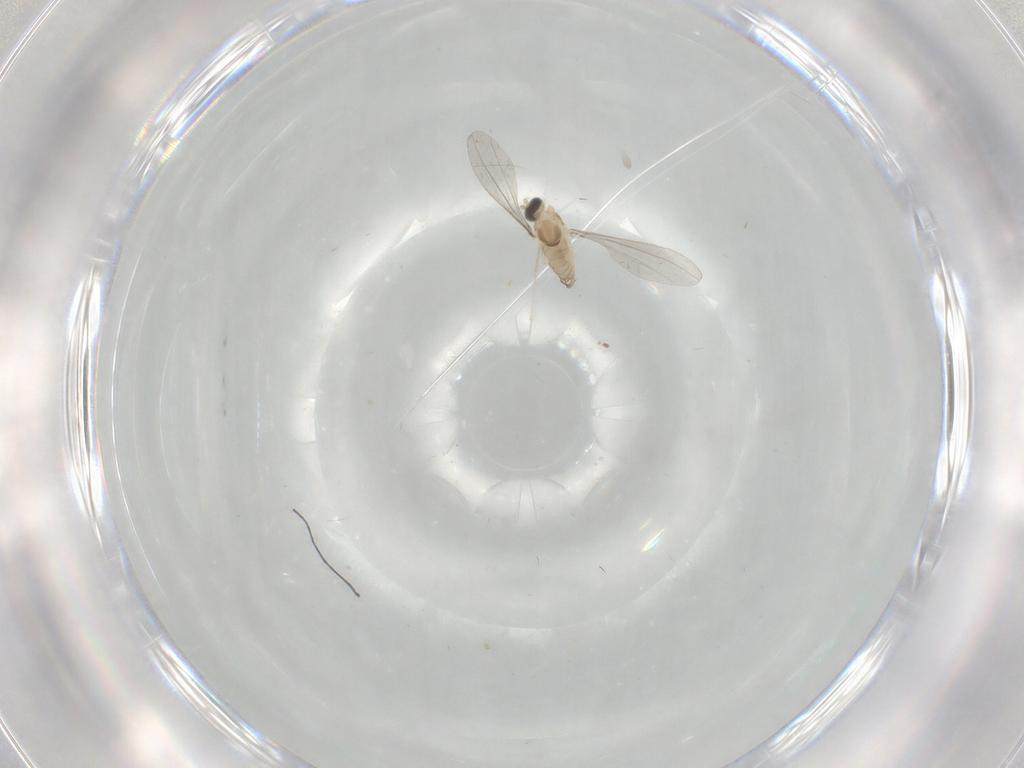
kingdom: Animalia
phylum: Arthropoda
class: Insecta
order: Diptera
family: Cecidomyiidae
